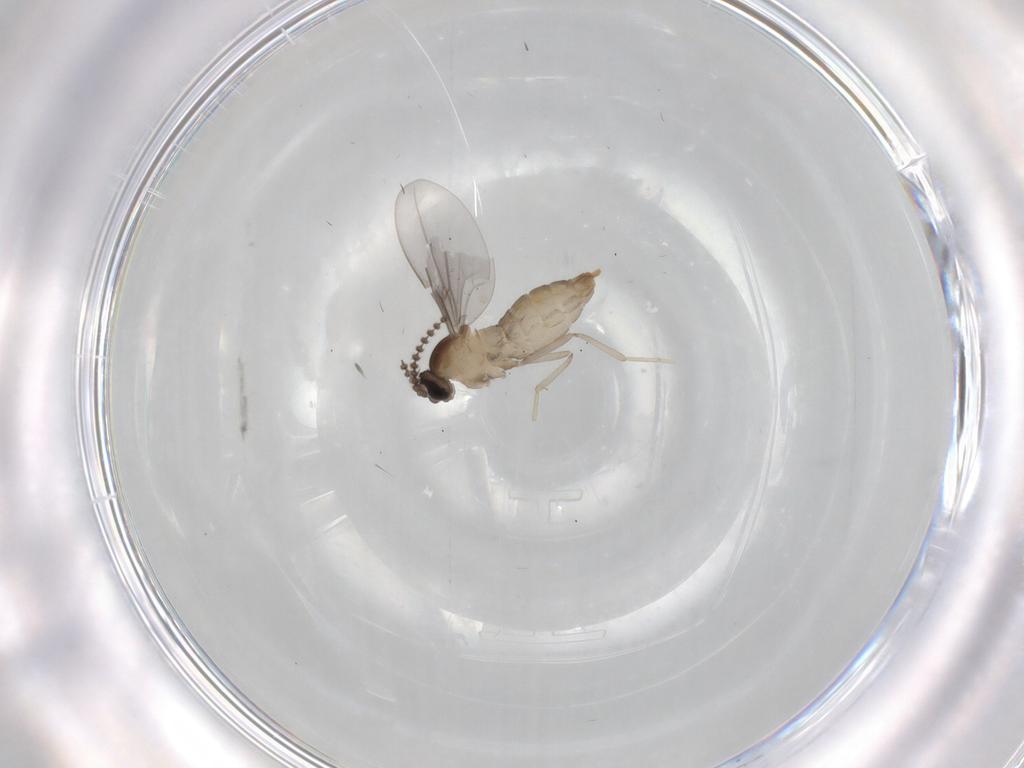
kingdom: Animalia
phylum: Arthropoda
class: Insecta
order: Diptera
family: Cecidomyiidae
